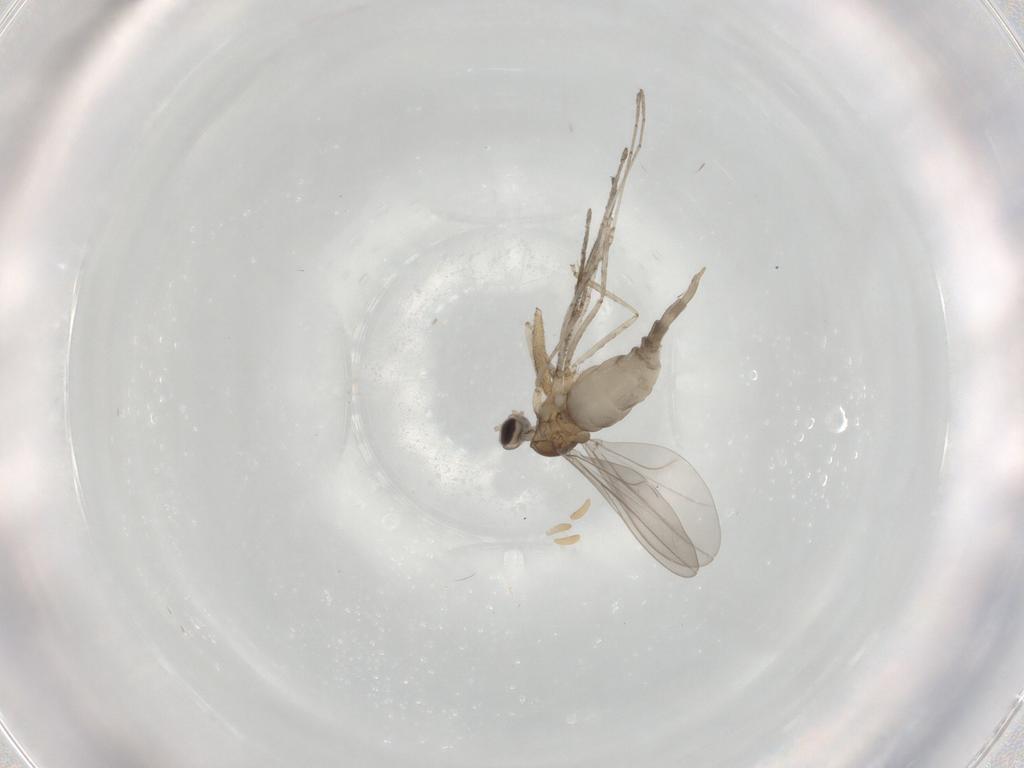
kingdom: Animalia
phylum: Arthropoda
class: Insecta
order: Diptera
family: Cecidomyiidae
